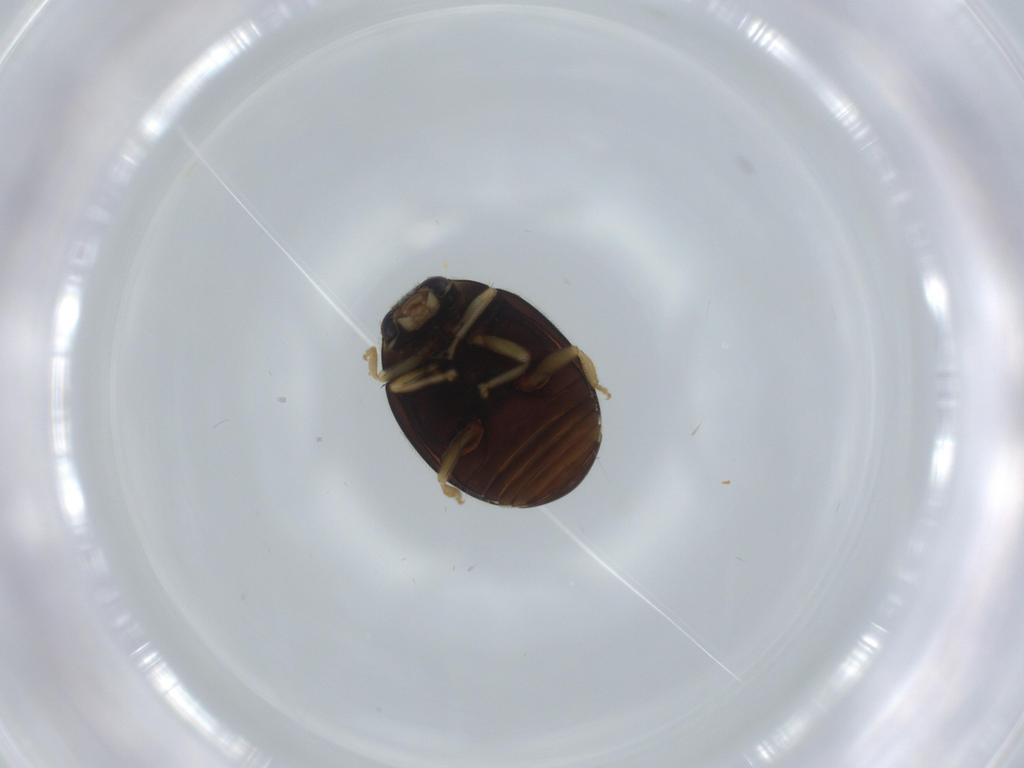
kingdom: Animalia
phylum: Arthropoda
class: Insecta
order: Coleoptera
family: Coccinellidae
